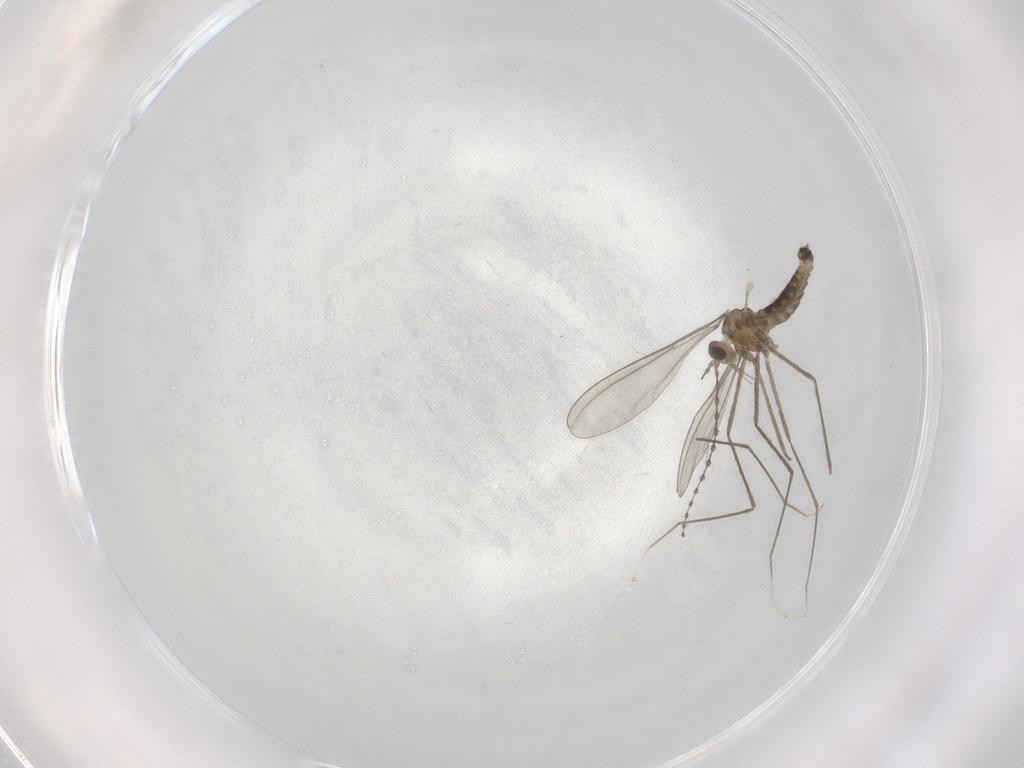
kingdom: Animalia
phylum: Arthropoda
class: Insecta
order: Diptera
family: Cecidomyiidae
